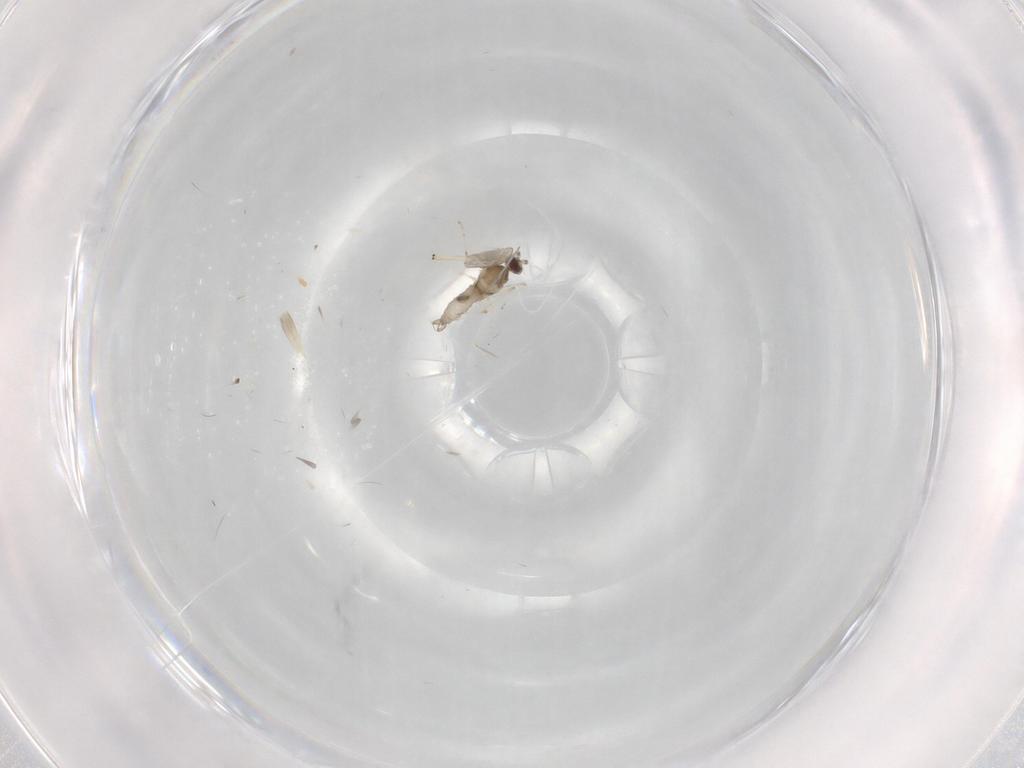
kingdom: Animalia
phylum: Arthropoda
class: Insecta
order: Diptera
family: Cecidomyiidae
